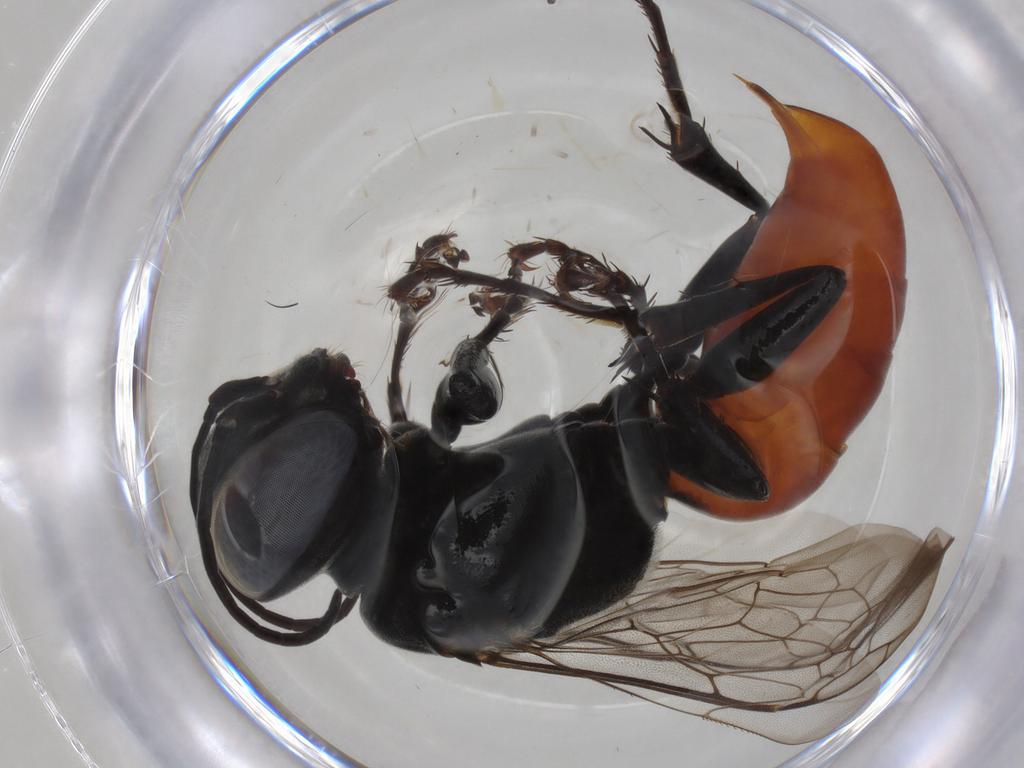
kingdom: Animalia
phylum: Arthropoda
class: Insecta
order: Hymenoptera
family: Crabronidae
